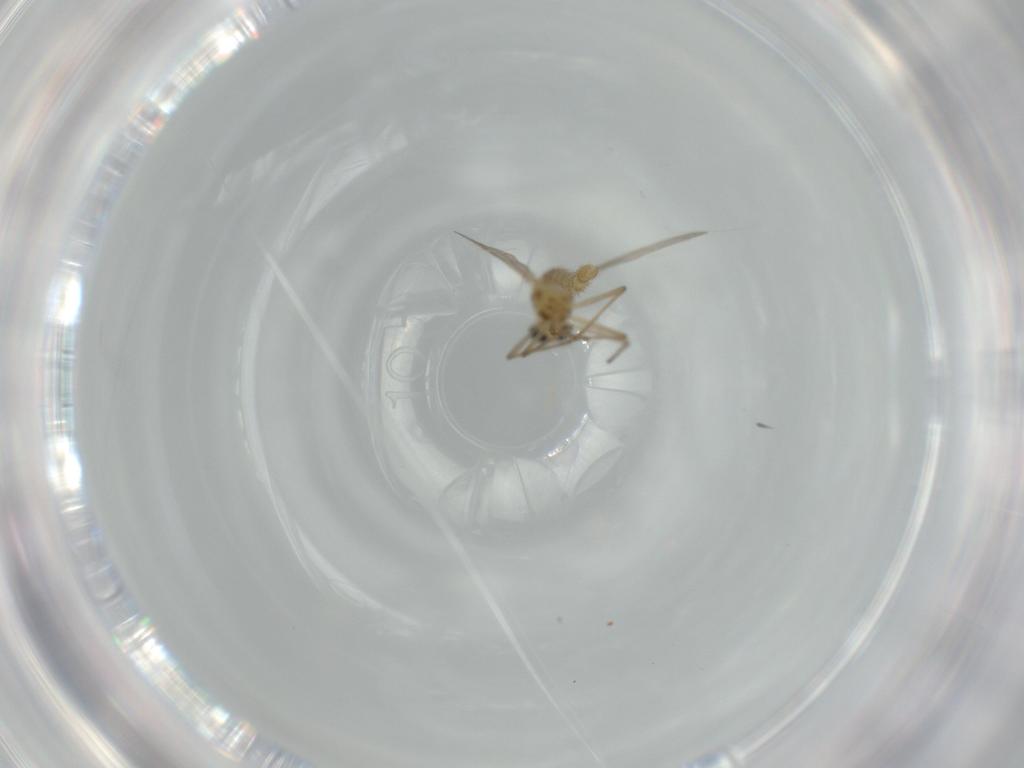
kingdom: Animalia
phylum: Arthropoda
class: Insecta
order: Diptera
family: Chironomidae
